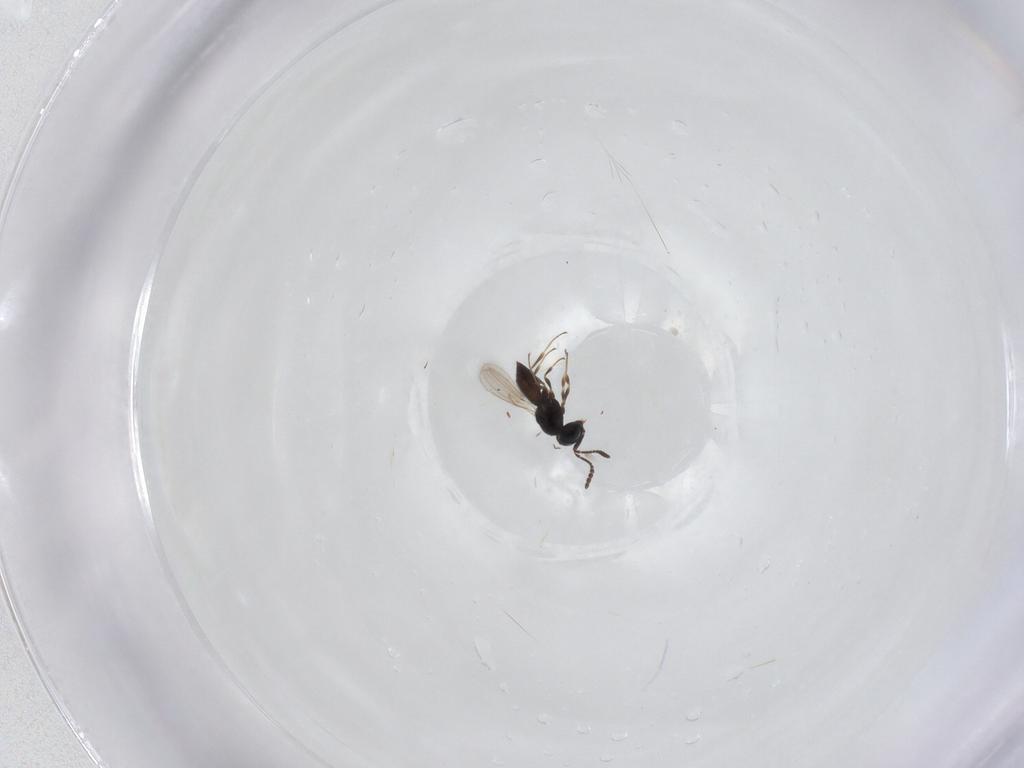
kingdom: Animalia
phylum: Arthropoda
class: Insecta
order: Hymenoptera
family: Scelionidae
